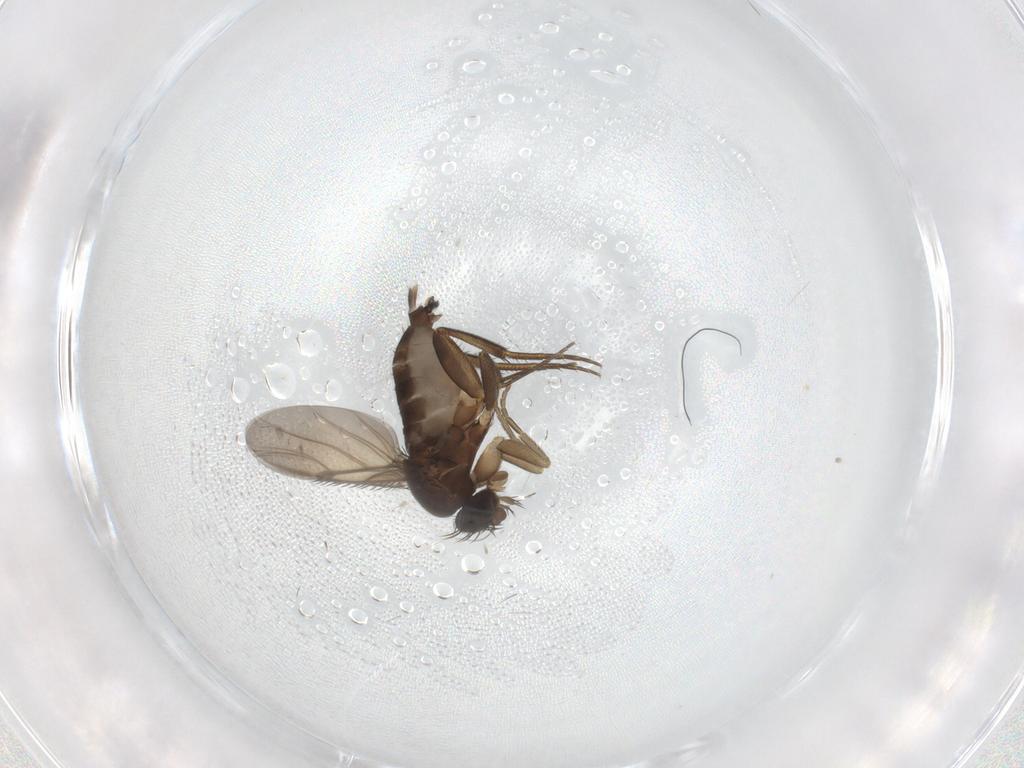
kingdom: Animalia
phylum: Arthropoda
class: Insecta
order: Diptera
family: Phoridae
